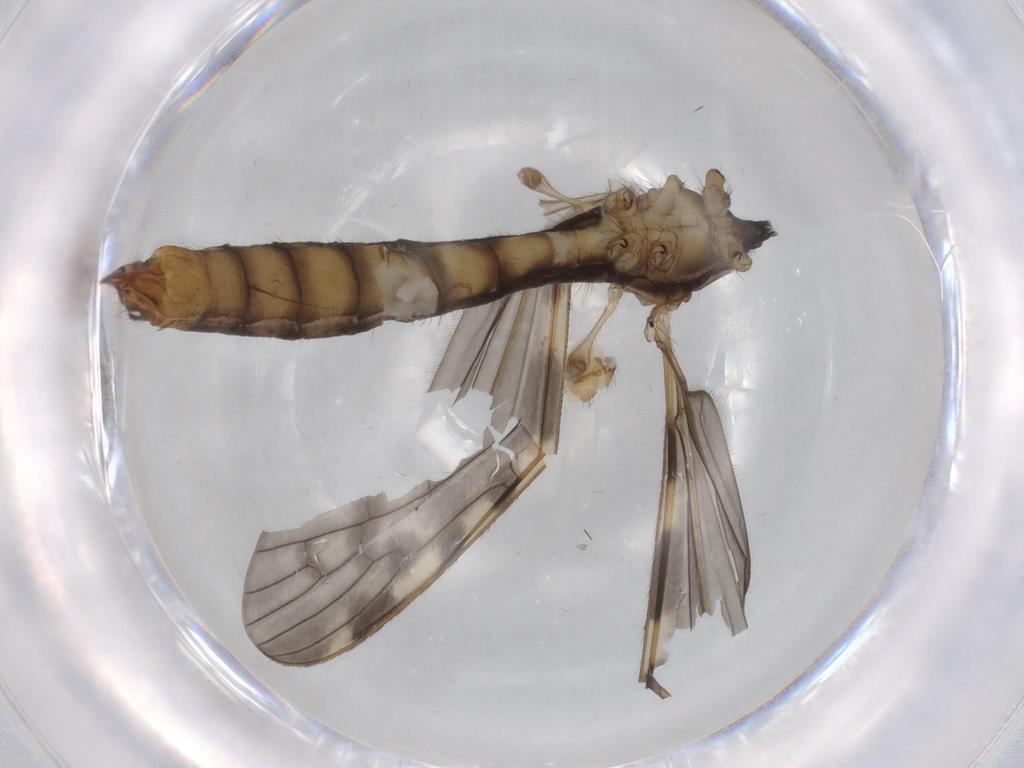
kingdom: Animalia
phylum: Arthropoda
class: Insecta
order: Diptera
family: Limoniidae
